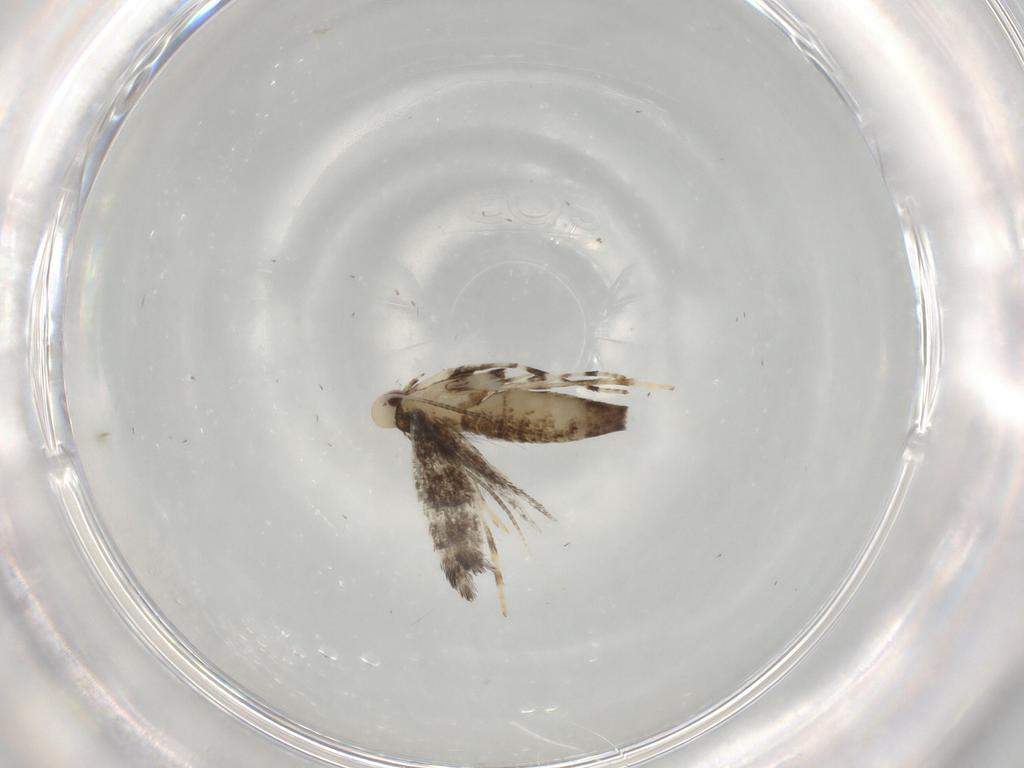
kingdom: Animalia
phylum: Arthropoda
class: Insecta
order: Lepidoptera
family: Gracillariidae
